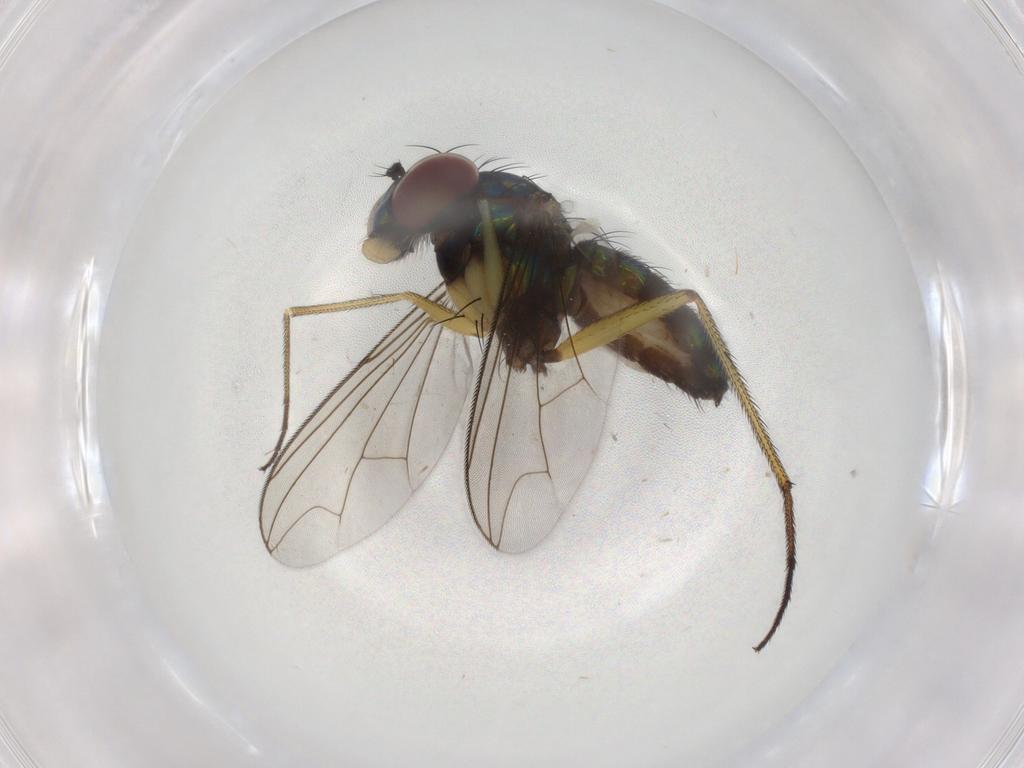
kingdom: Animalia
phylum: Arthropoda
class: Insecta
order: Diptera
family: Dolichopodidae
